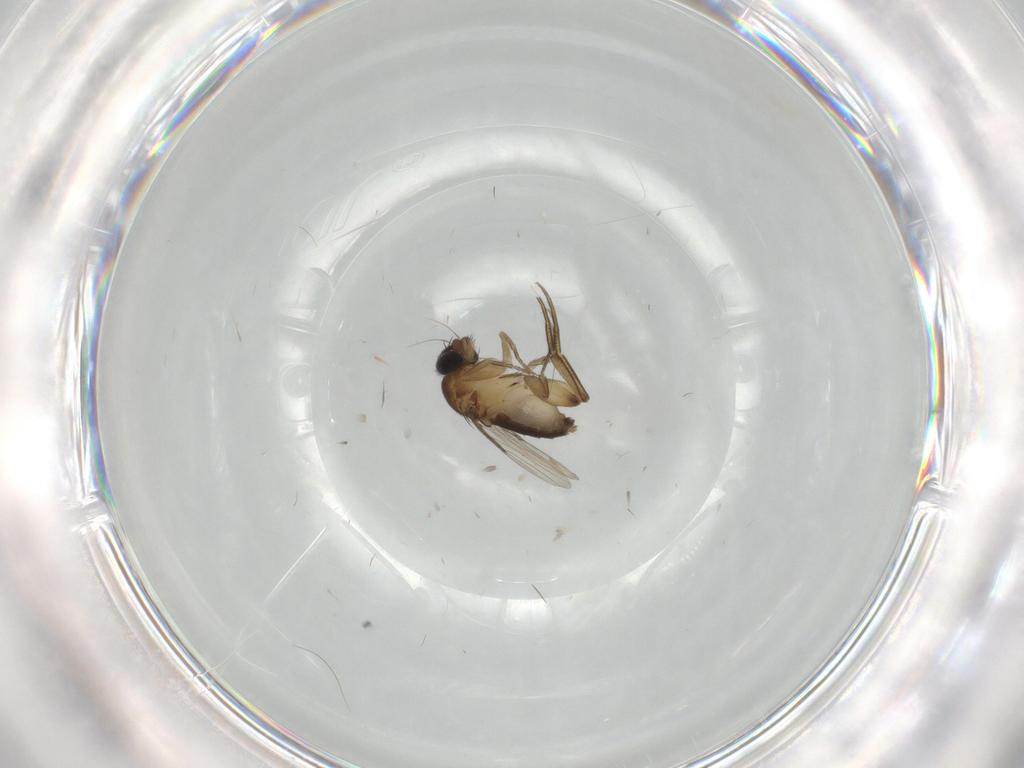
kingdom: Animalia
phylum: Arthropoda
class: Insecta
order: Diptera
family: Phoridae
